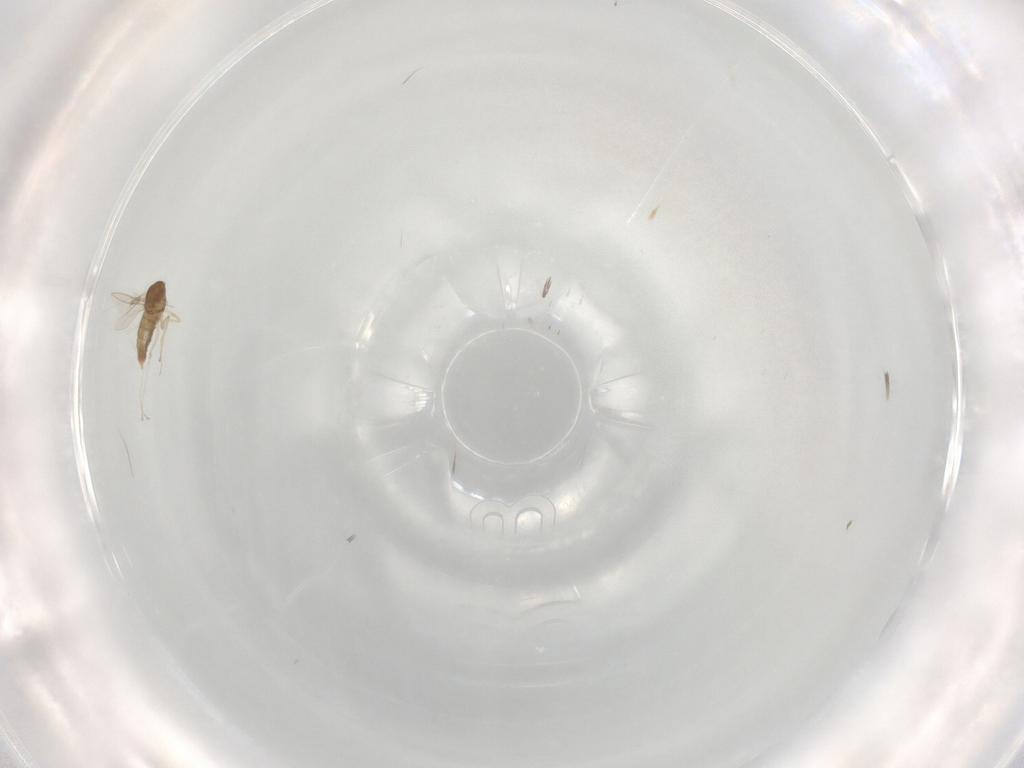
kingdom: Animalia
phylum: Arthropoda
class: Insecta
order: Diptera
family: Cecidomyiidae
